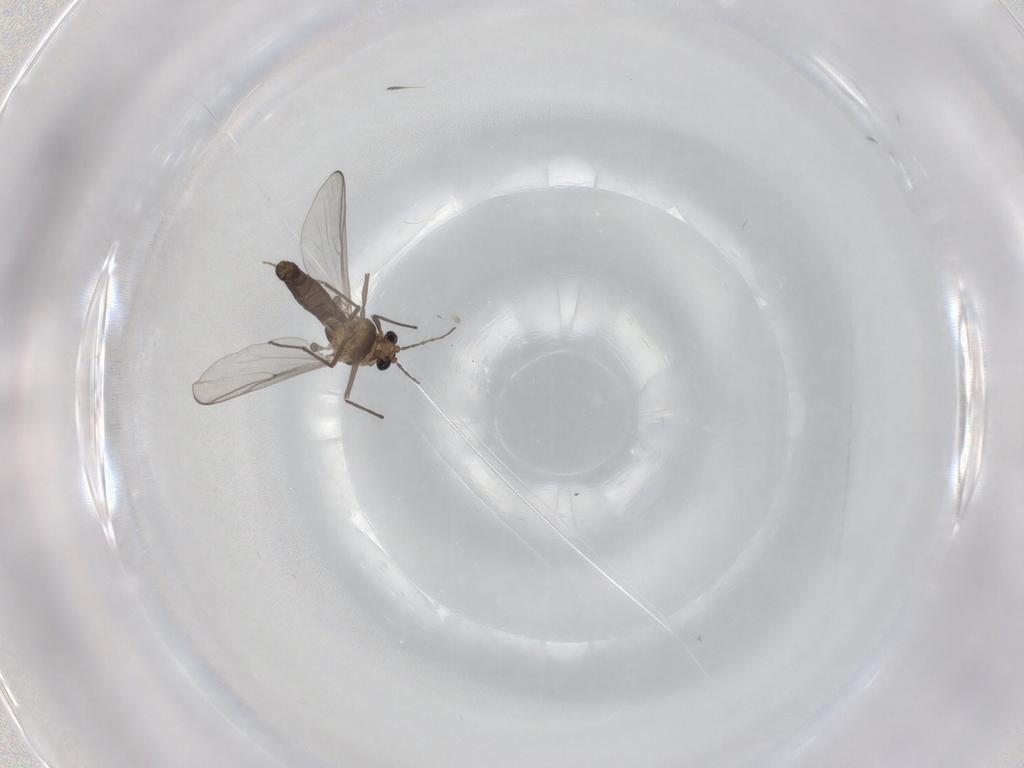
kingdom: Animalia
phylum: Arthropoda
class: Insecta
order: Diptera
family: Chironomidae
